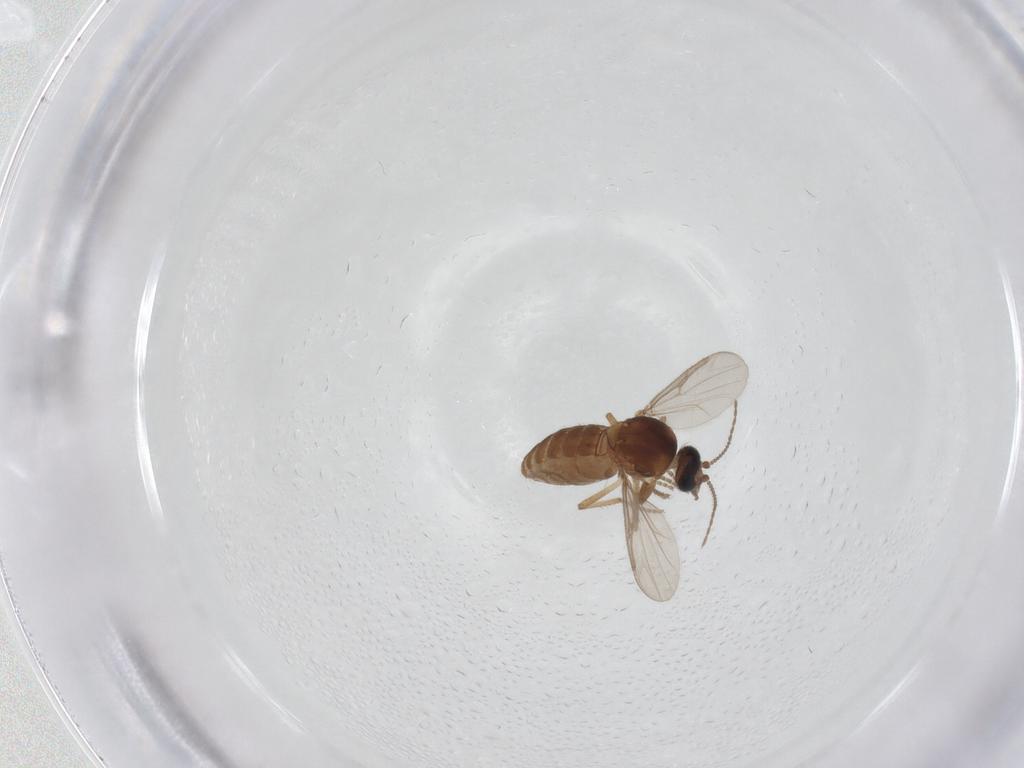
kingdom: Animalia
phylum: Arthropoda
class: Insecta
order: Diptera
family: Ceratopogonidae
